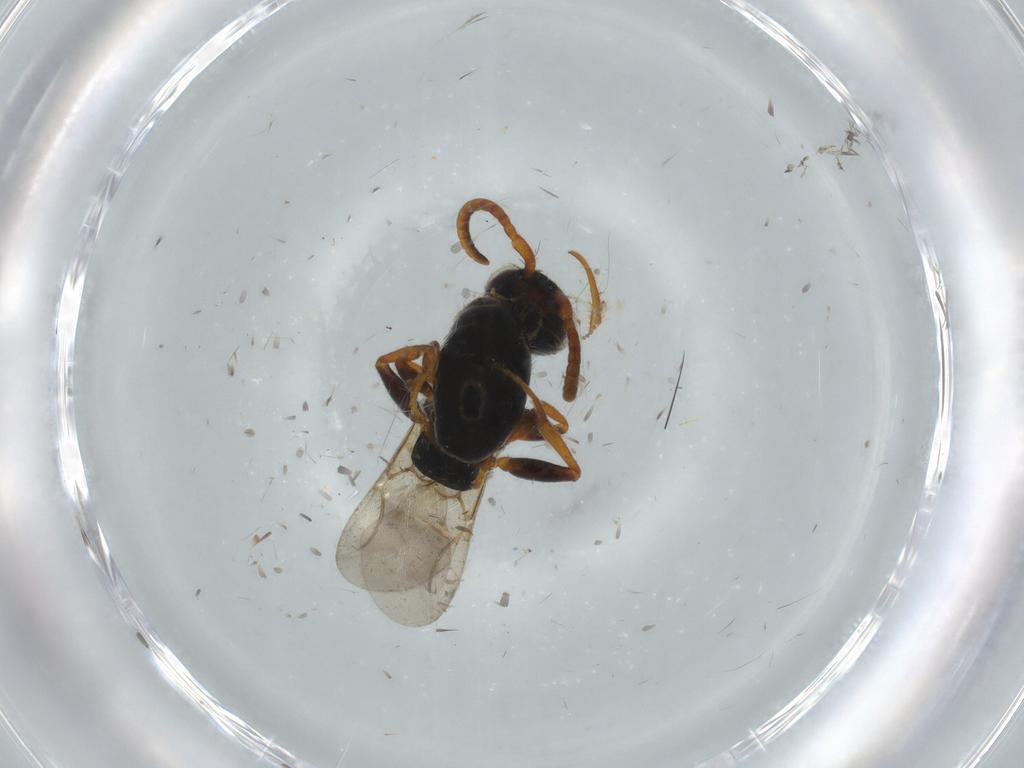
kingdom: Animalia
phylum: Arthropoda
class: Insecta
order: Hymenoptera
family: Bethylidae
